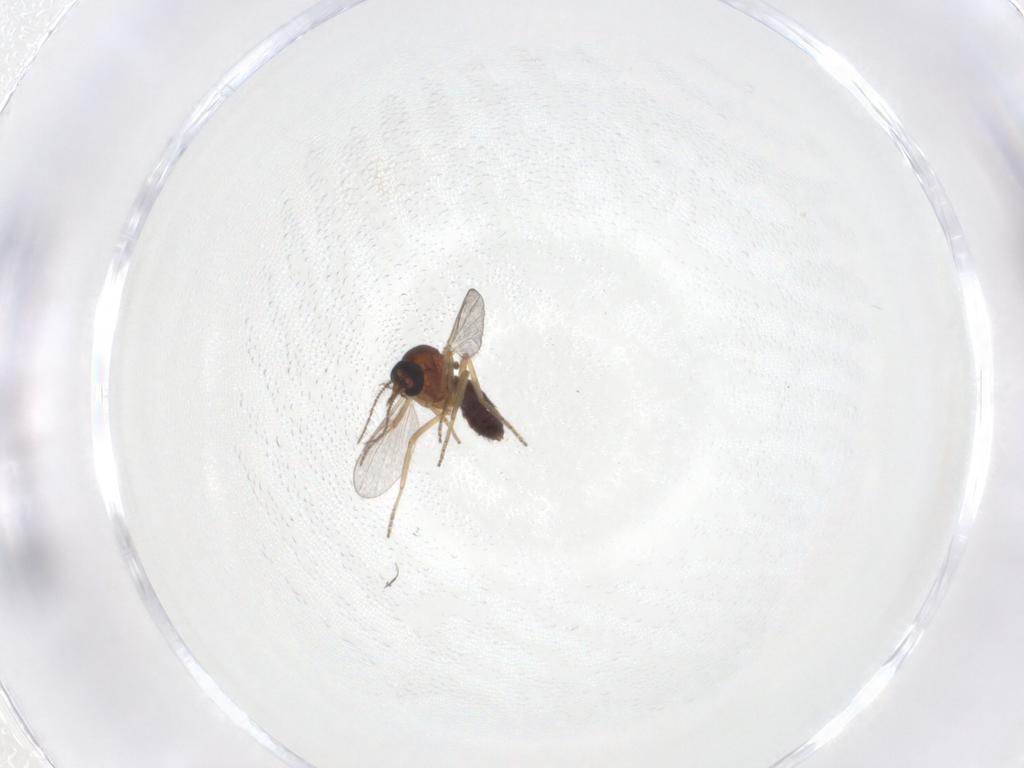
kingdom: Animalia
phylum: Arthropoda
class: Insecta
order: Diptera
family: Ceratopogonidae
